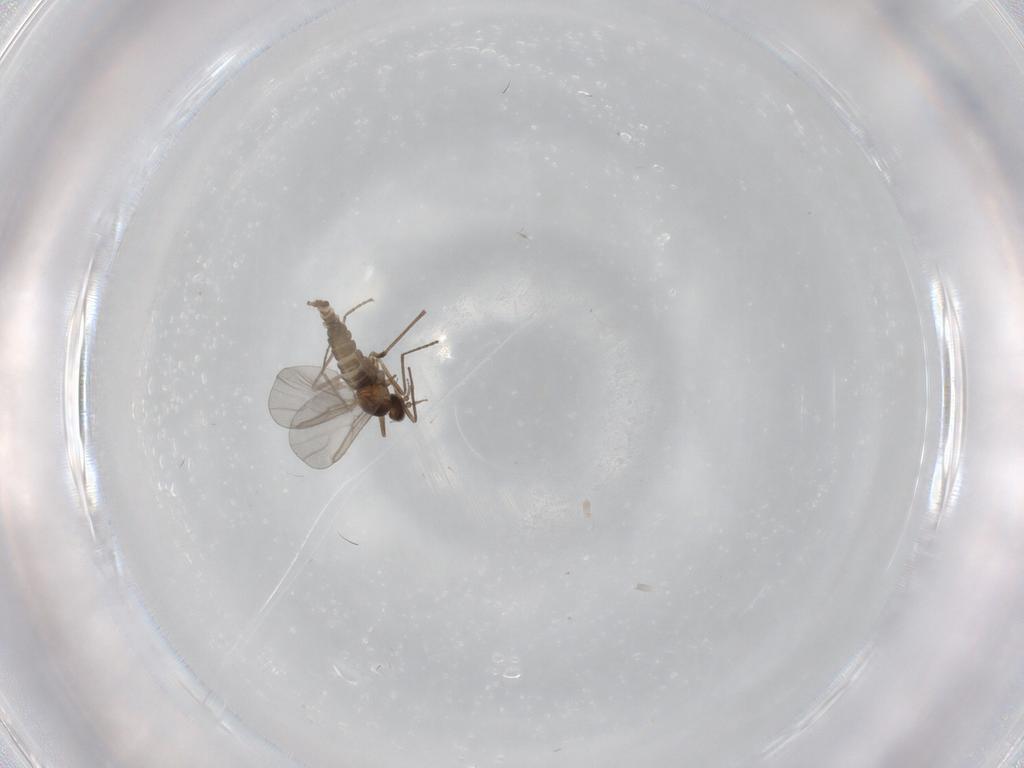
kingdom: Animalia
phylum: Arthropoda
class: Insecta
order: Diptera
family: Cecidomyiidae
